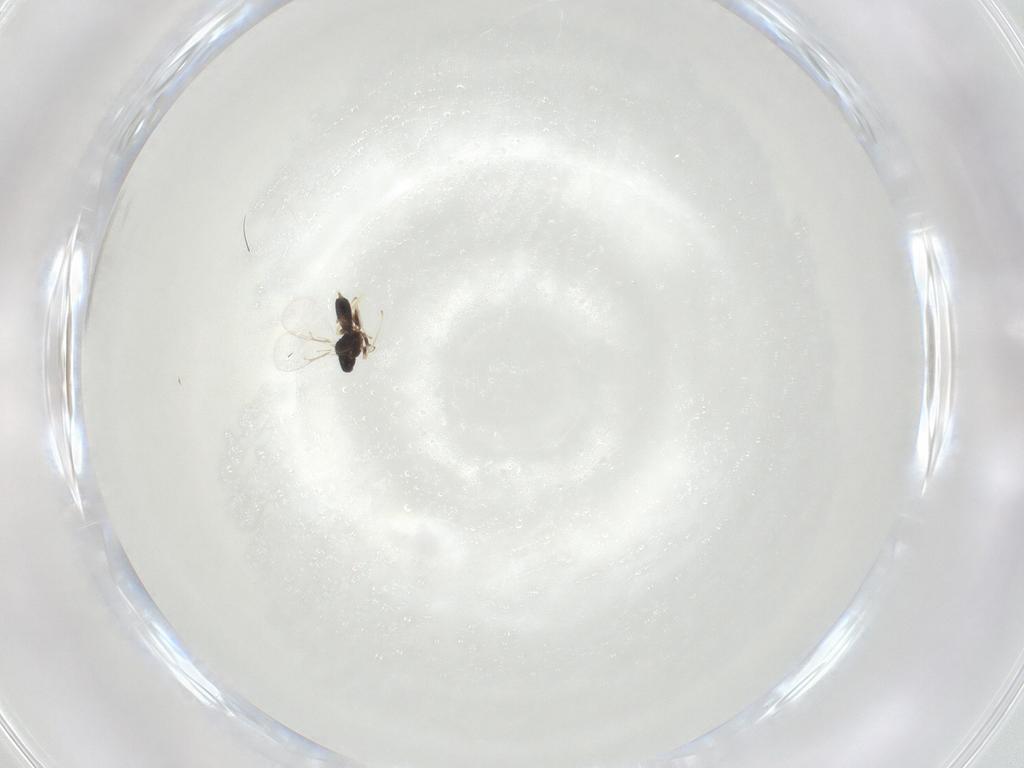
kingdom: Animalia
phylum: Arthropoda
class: Insecta
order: Hymenoptera
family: Eulophidae
